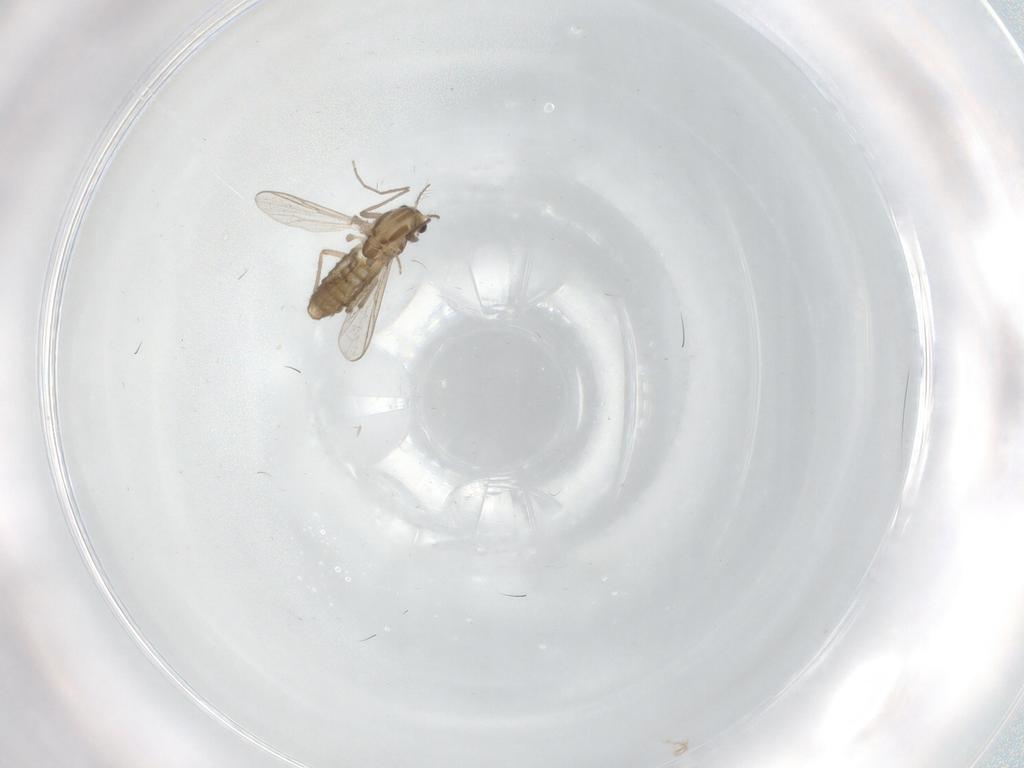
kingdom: Animalia
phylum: Arthropoda
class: Insecta
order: Diptera
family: Chironomidae
